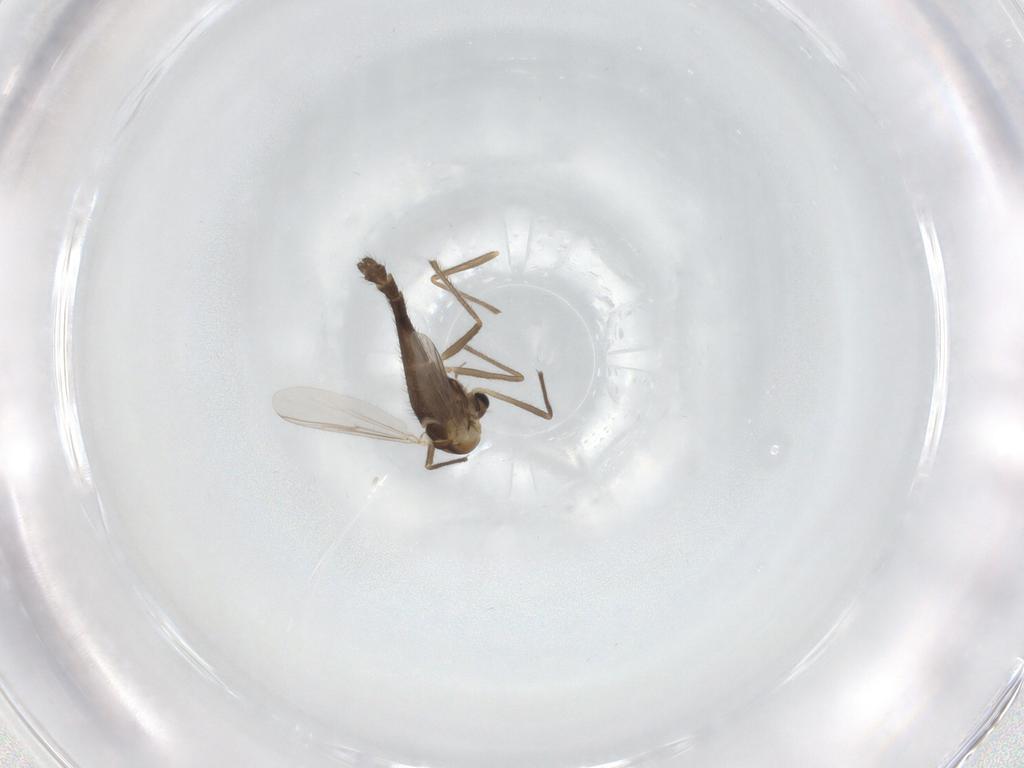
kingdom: Animalia
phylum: Arthropoda
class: Insecta
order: Diptera
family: Chironomidae
